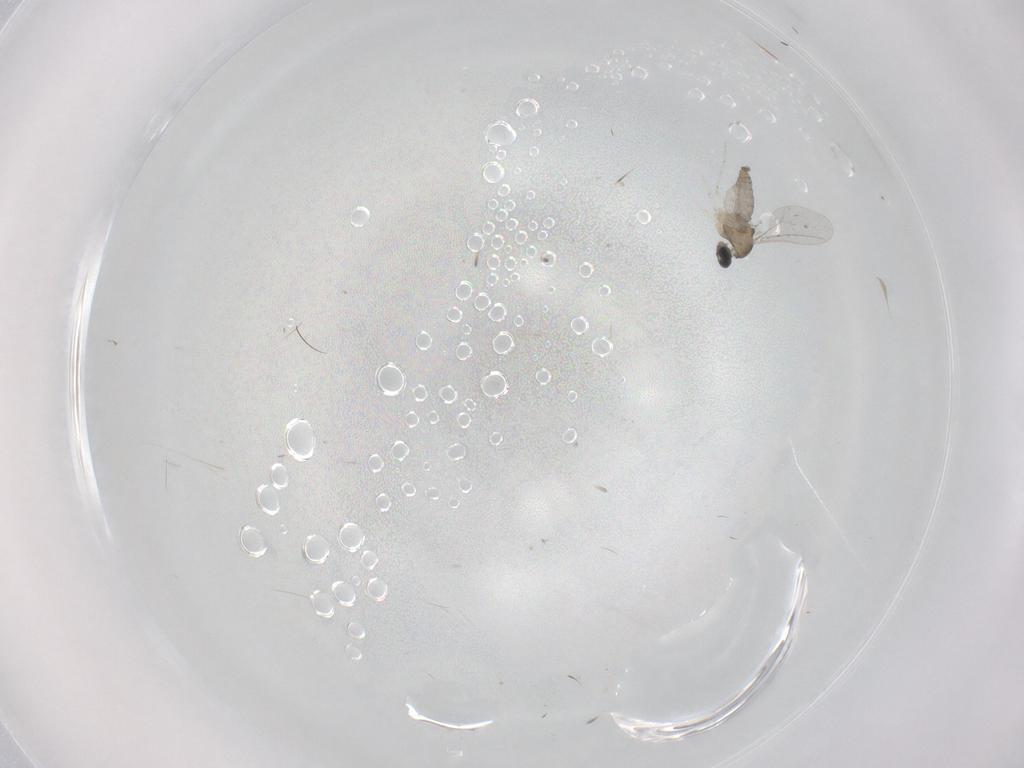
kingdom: Animalia
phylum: Arthropoda
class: Insecta
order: Diptera
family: Cecidomyiidae
